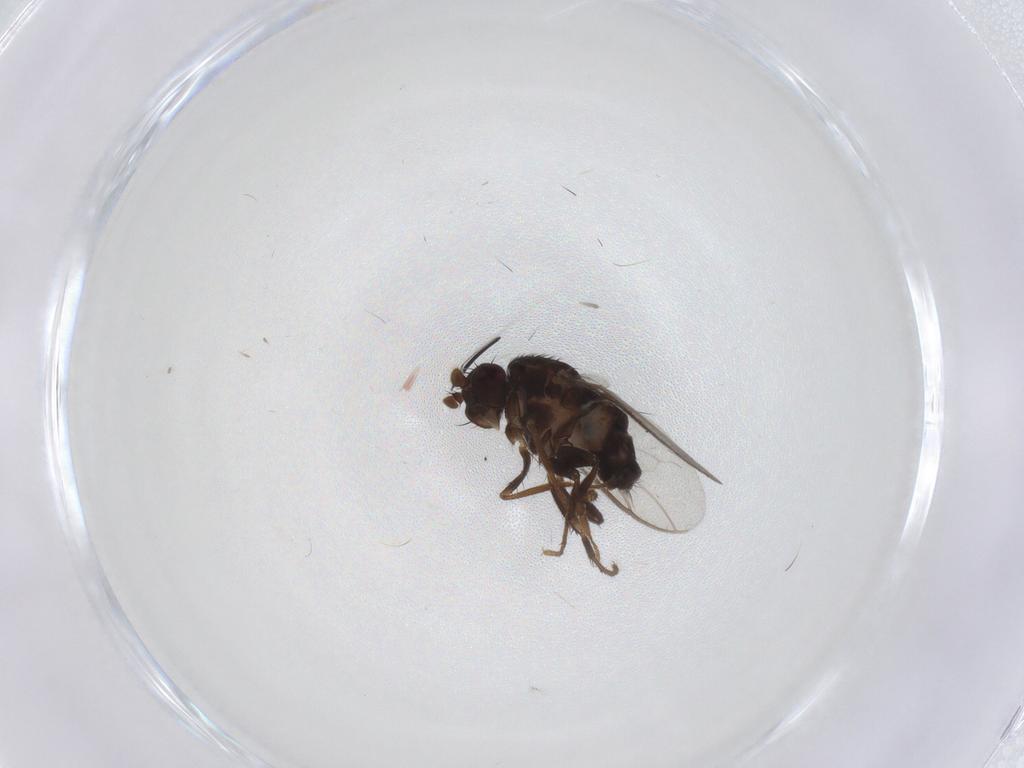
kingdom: Animalia
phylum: Arthropoda
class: Insecta
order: Diptera
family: Sphaeroceridae
